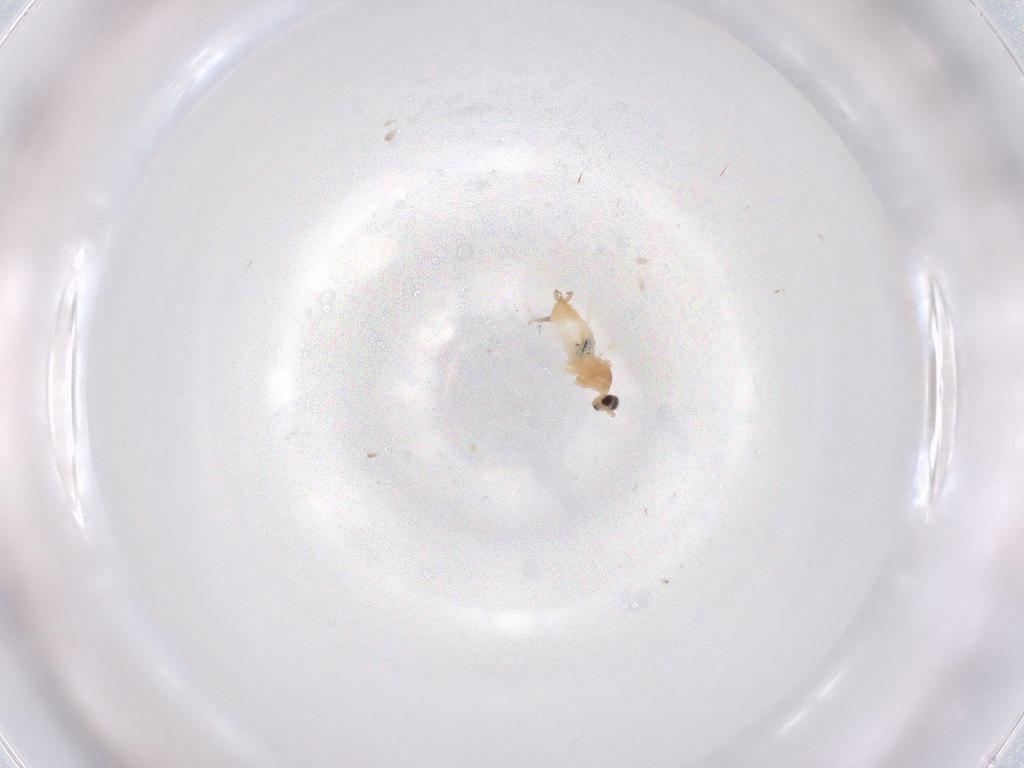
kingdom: Animalia
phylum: Arthropoda
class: Insecta
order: Diptera
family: Cecidomyiidae
